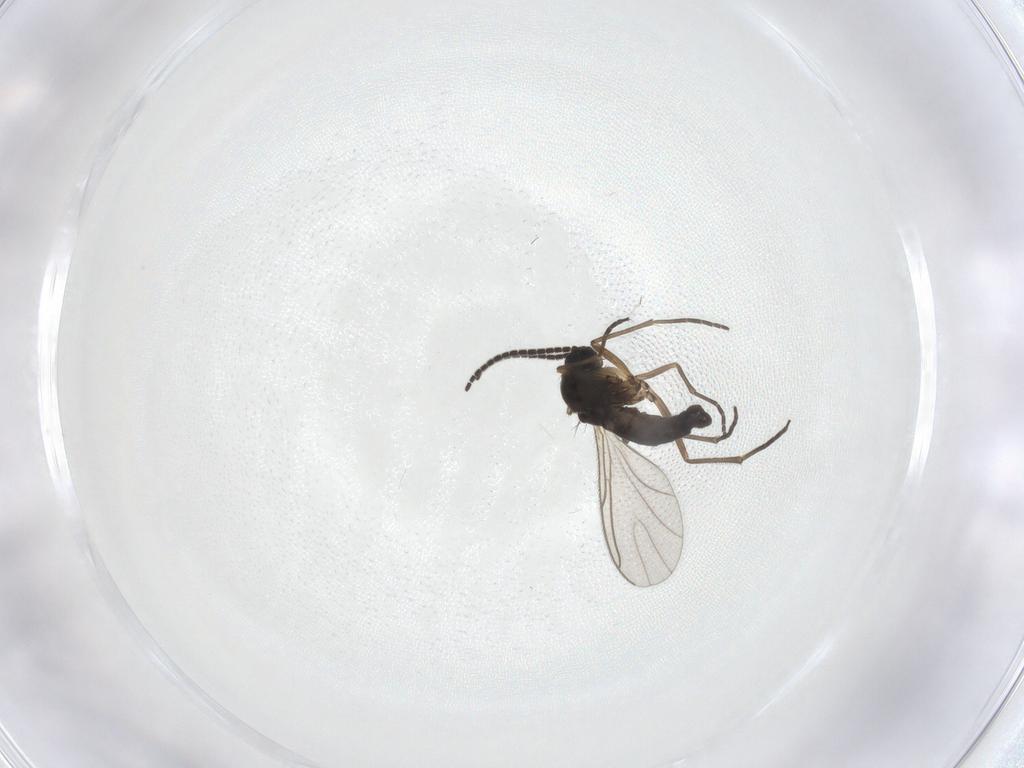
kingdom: Animalia
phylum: Arthropoda
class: Insecta
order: Diptera
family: Sciaridae
